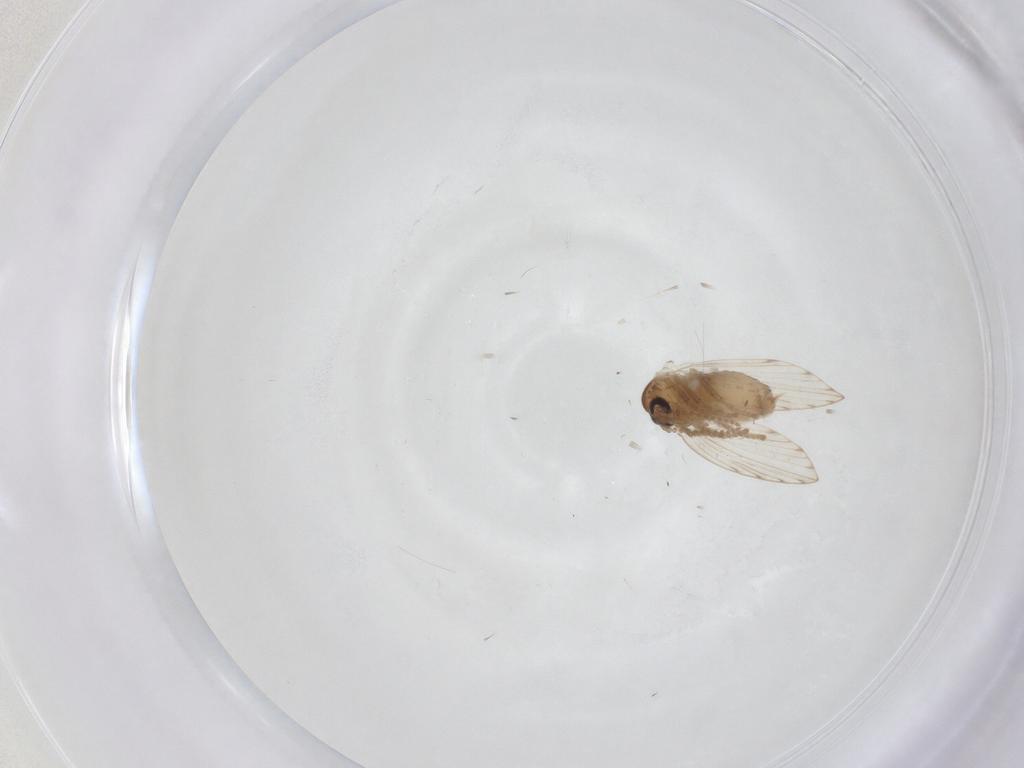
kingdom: Animalia
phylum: Arthropoda
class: Insecta
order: Diptera
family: Psychodidae
